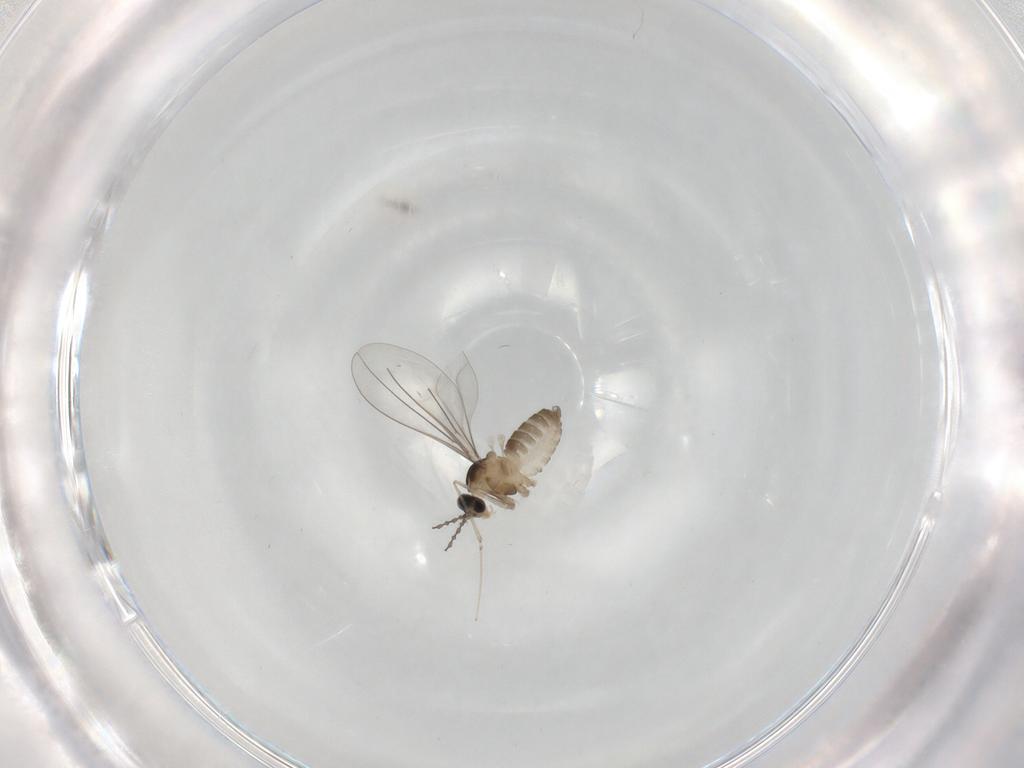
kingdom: Animalia
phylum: Arthropoda
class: Insecta
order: Diptera
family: Cecidomyiidae
